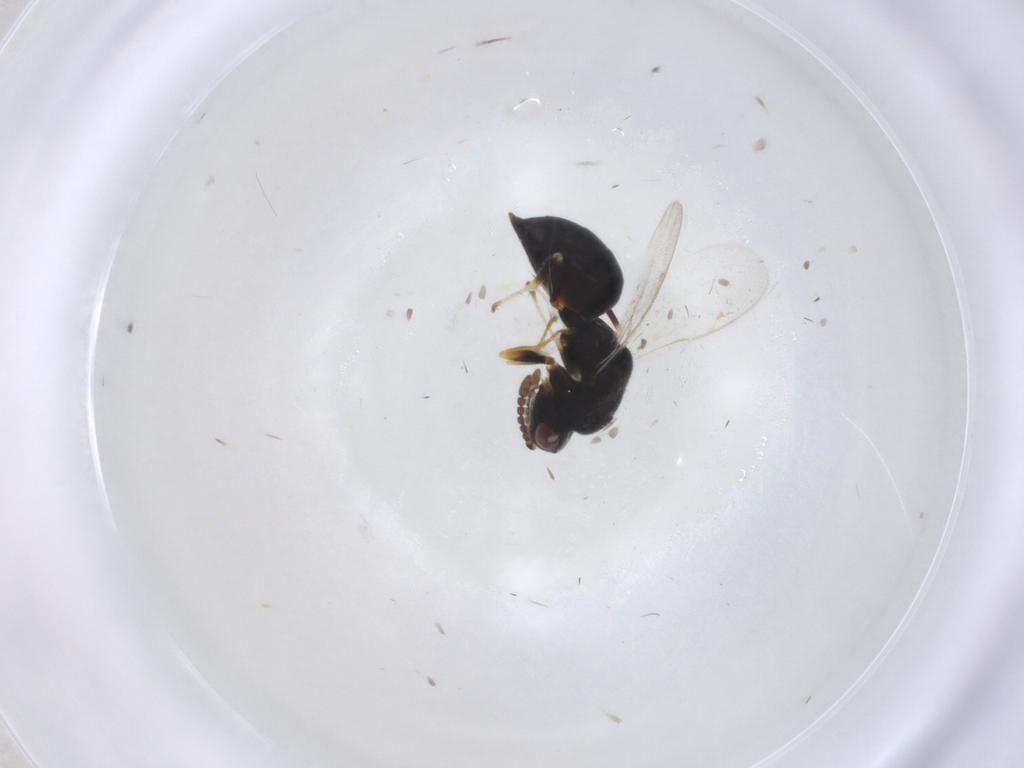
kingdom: Animalia
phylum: Arthropoda
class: Insecta
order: Hymenoptera
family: Eurytomidae
